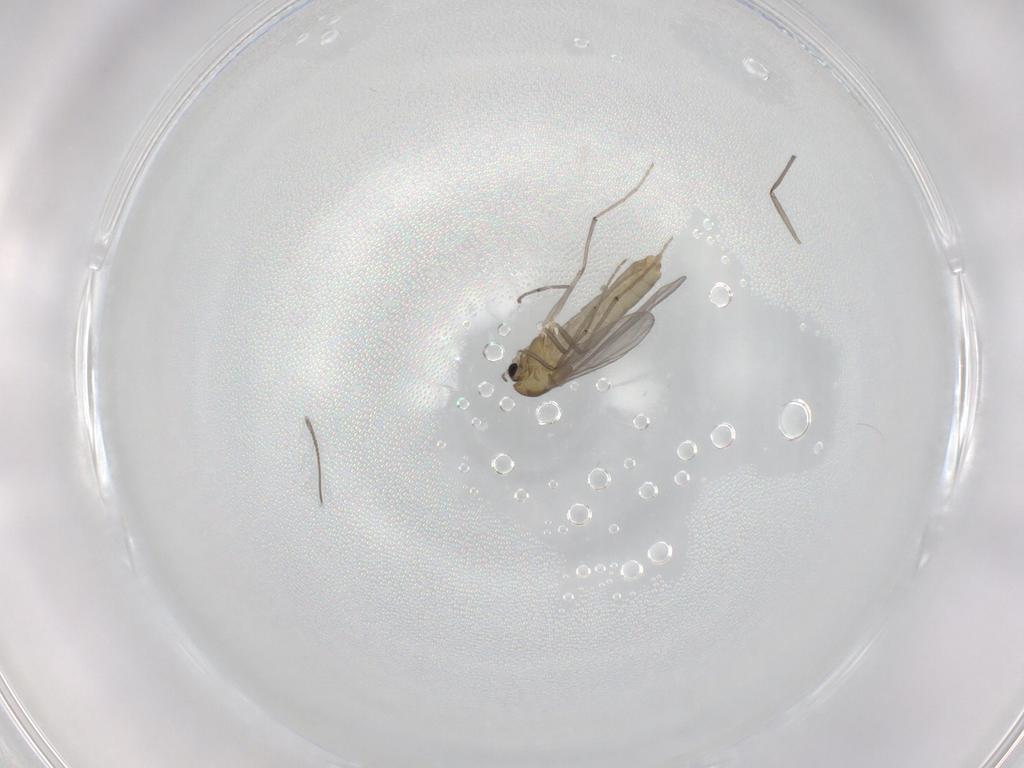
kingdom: Animalia
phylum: Arthropoda
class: Insecta
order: Diptera
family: Chironomidae
